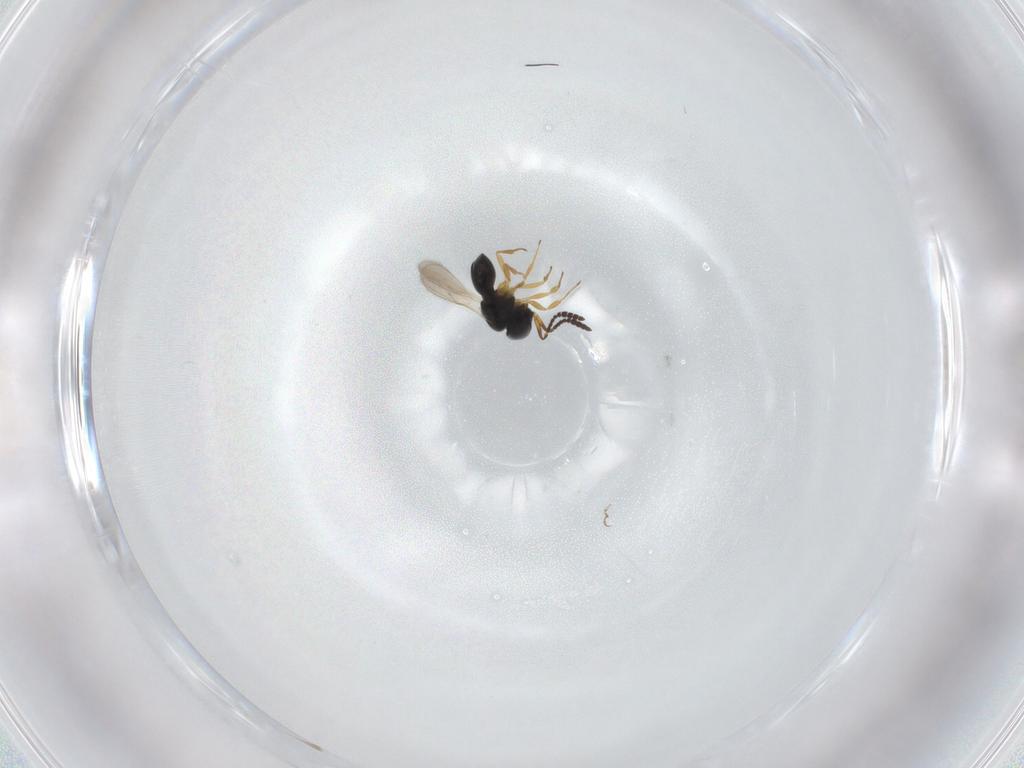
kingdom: Animalia
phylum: Arthropoda
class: Insecta
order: Hymenoptera
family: Scelionidae
